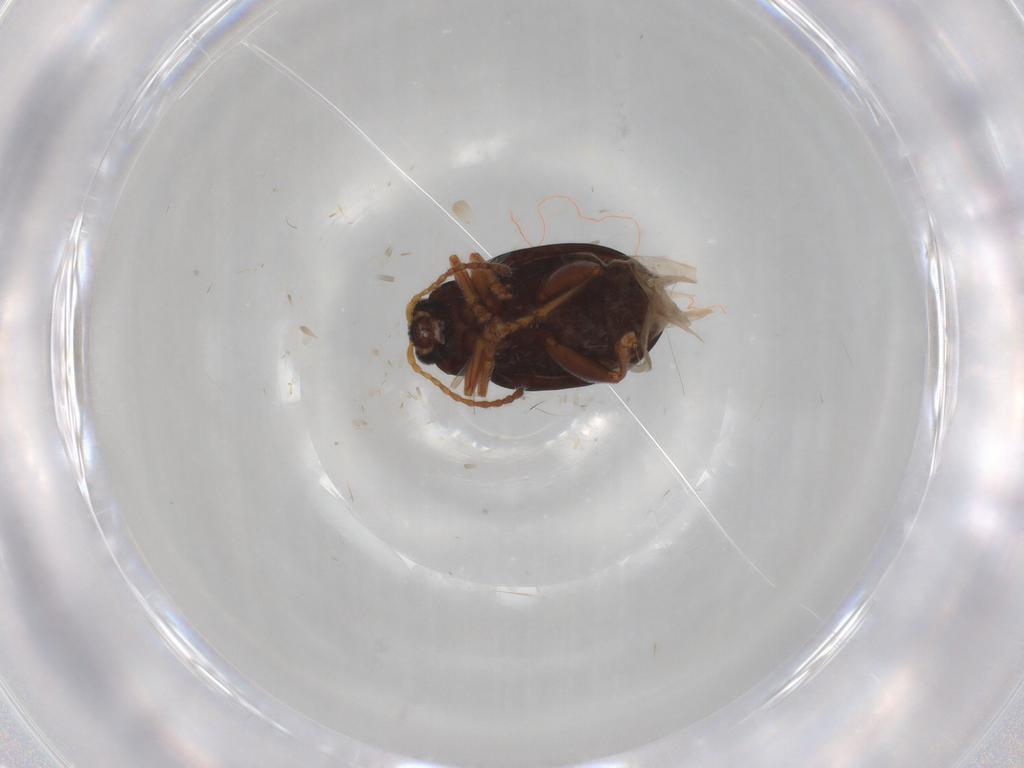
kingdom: Animalia
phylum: Arthropoda
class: Insecta
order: Coleoptera
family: Chrysomelidae
